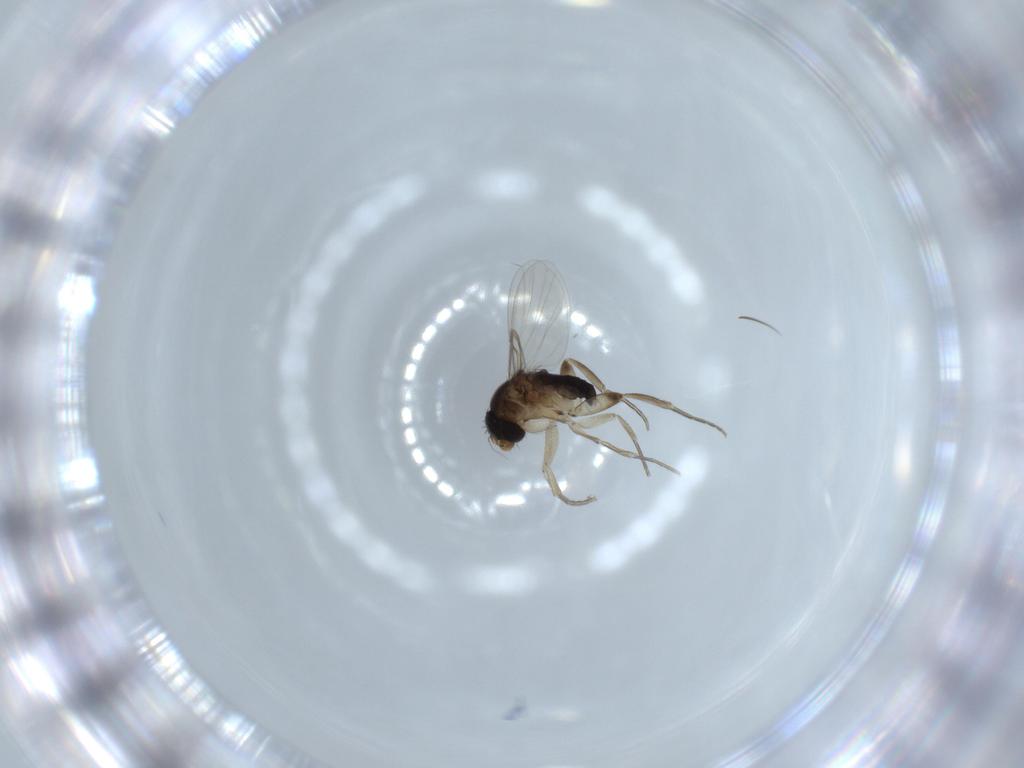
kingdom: Animalia
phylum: Arthropoda
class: Insecta
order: Diptera
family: Phoridae
